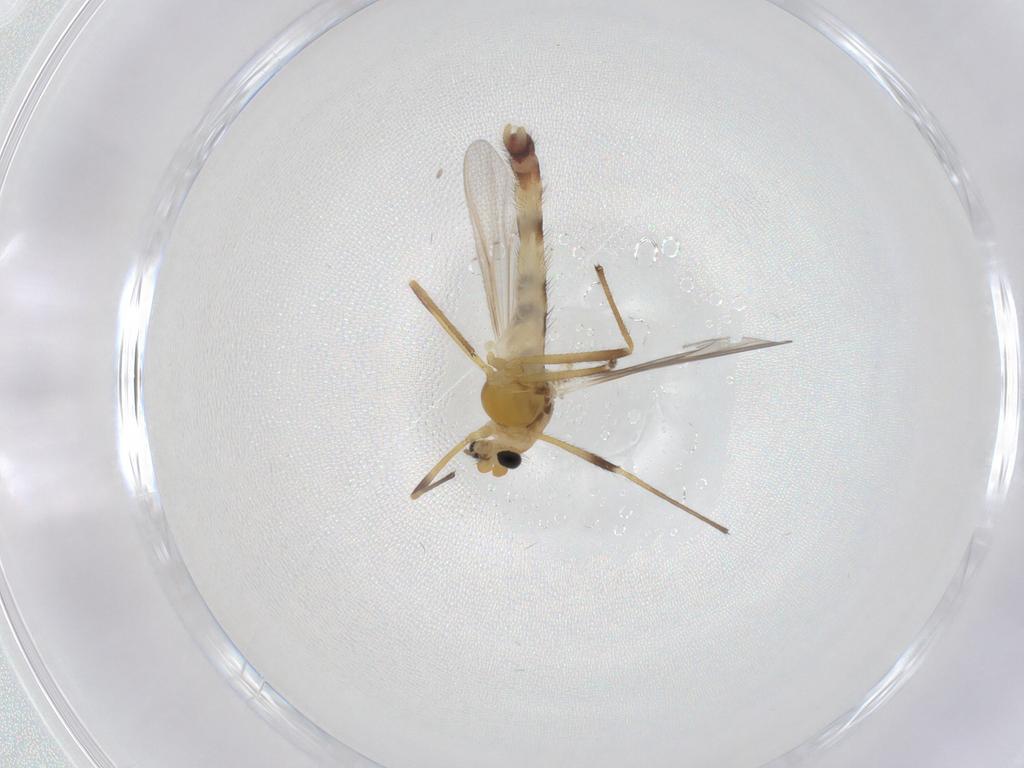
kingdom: Animalia
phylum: Arthropoda
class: Insecta
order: Diptera
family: Chironomidae
